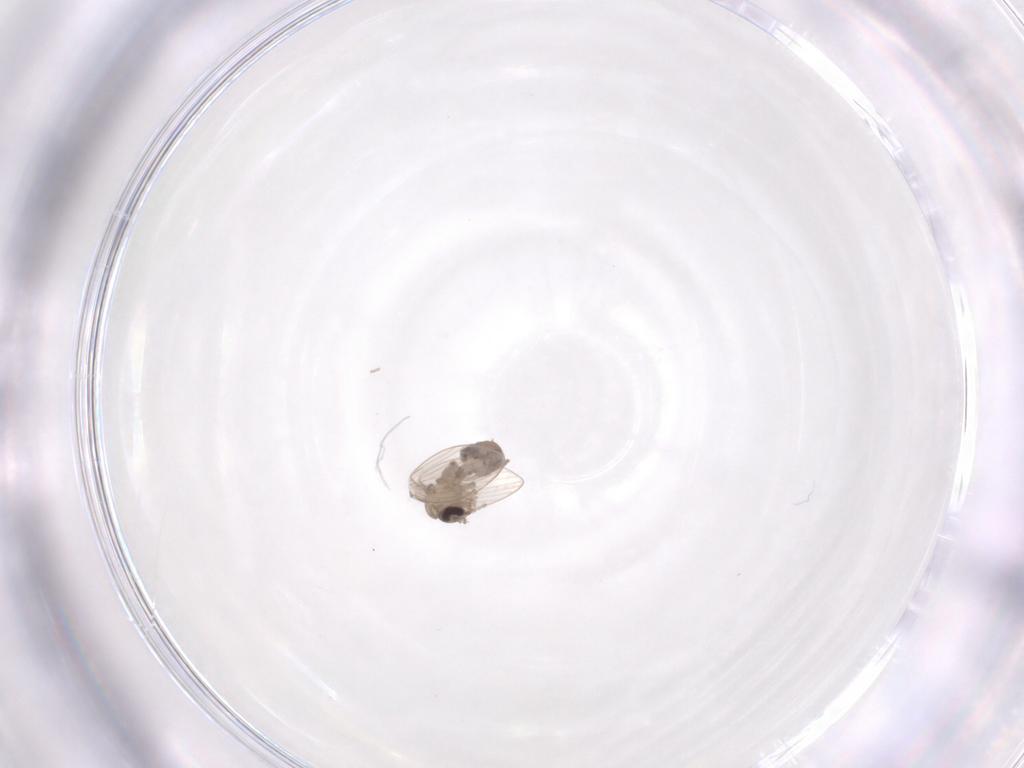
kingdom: Animalia
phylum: Arthropoda
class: Insecta
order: Diptera
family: Psychodidae
